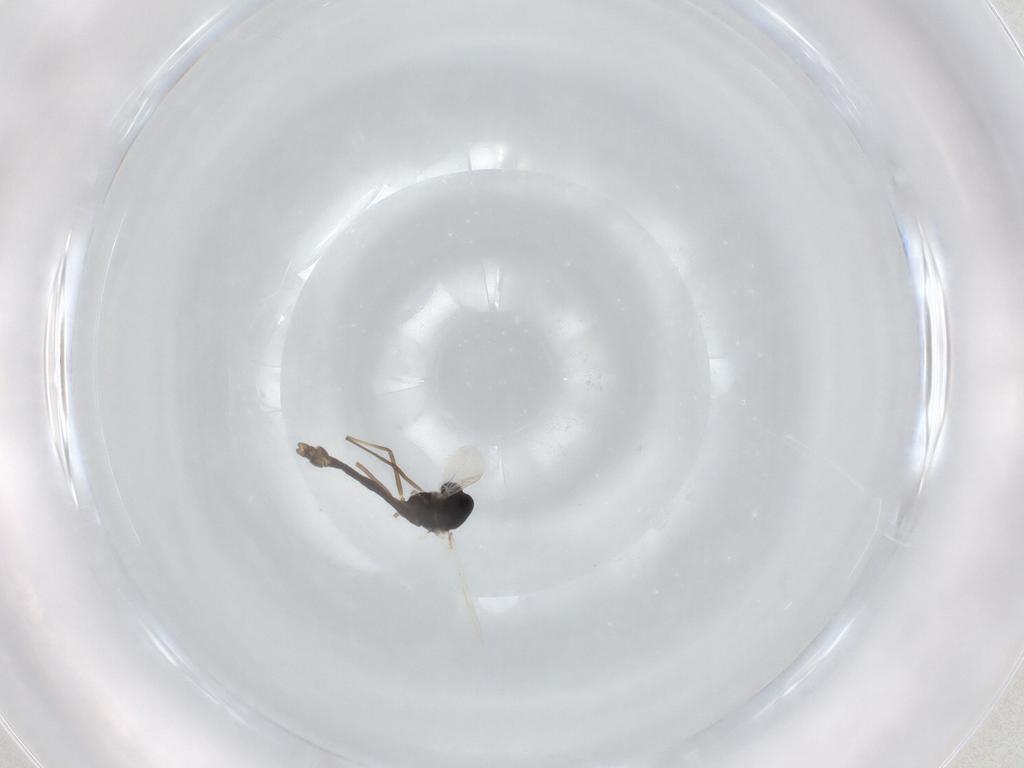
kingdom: Animalia
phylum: Arthropoda
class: Insecta
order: Diptera
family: Chironomidae
